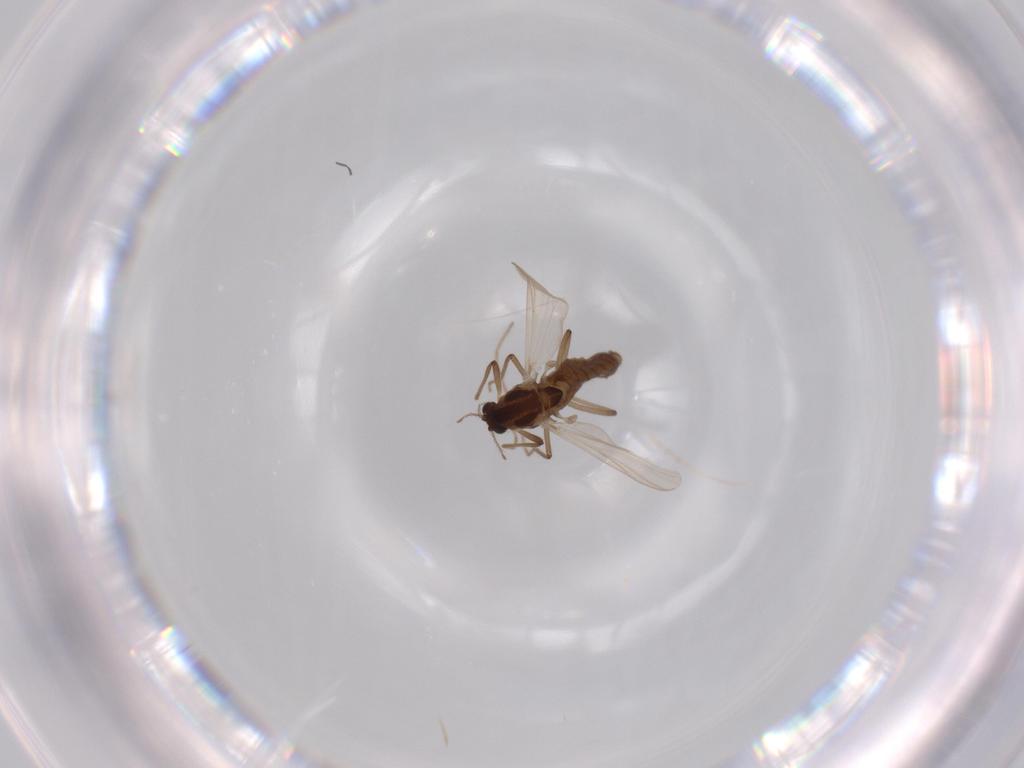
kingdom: Animalia
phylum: Arthropoda
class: Insecta
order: Diptera
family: Chironomidae
